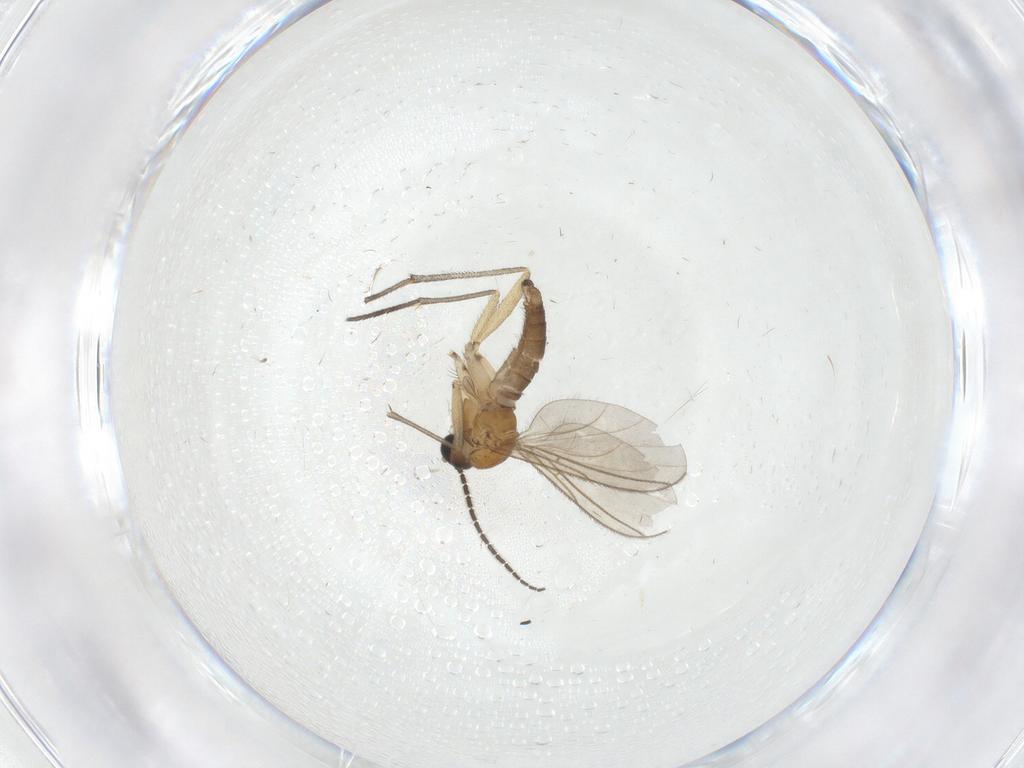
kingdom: Animalia
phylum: Arthropoda
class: Insecta
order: Diptera
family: Sciaridae
